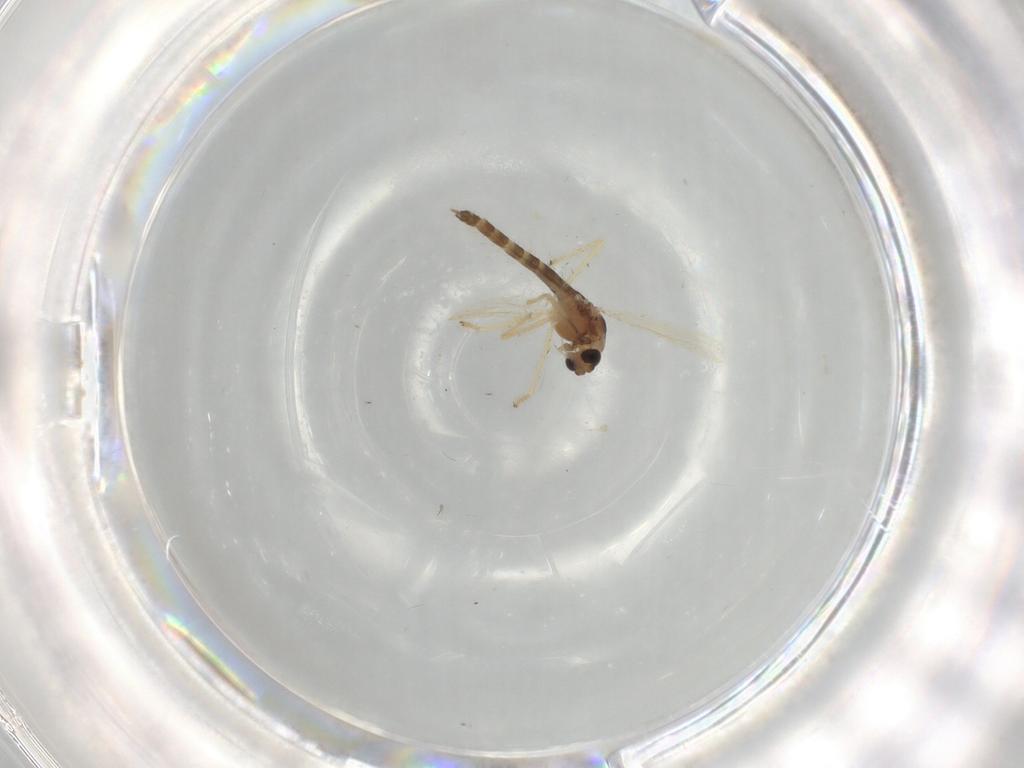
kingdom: Animalia
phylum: Arthropoda
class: Insecta
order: Diptera
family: Chironomidae
